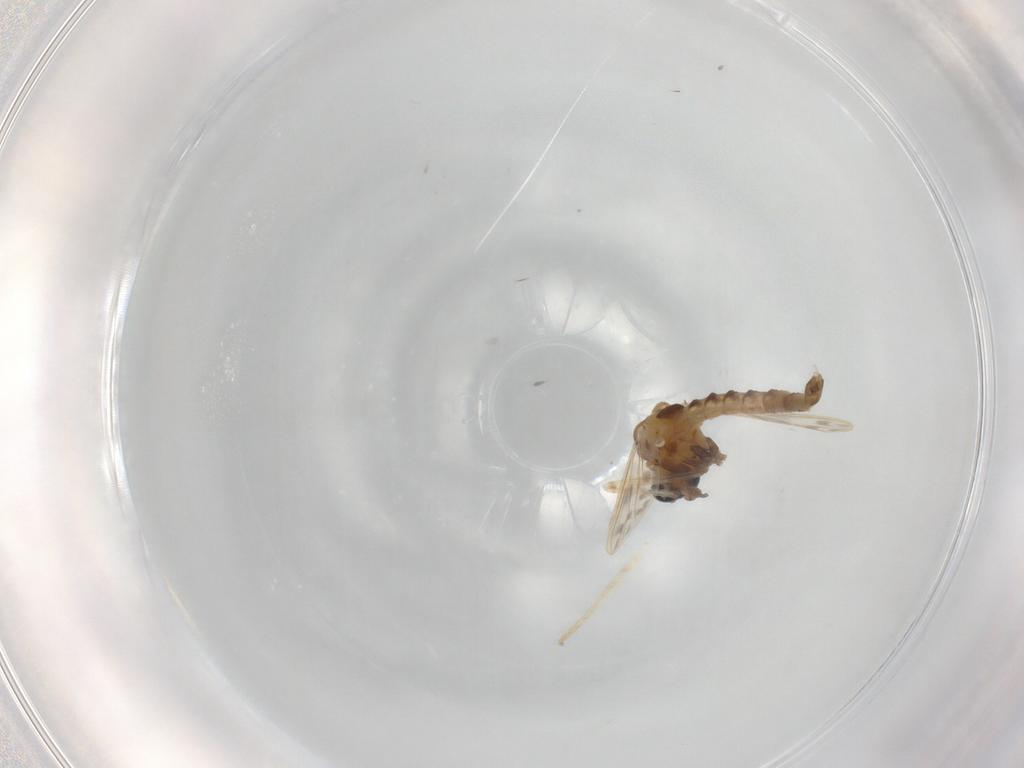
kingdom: Animalia
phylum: Arthropoda
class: Insecta
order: Diptera
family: Chironomidae
